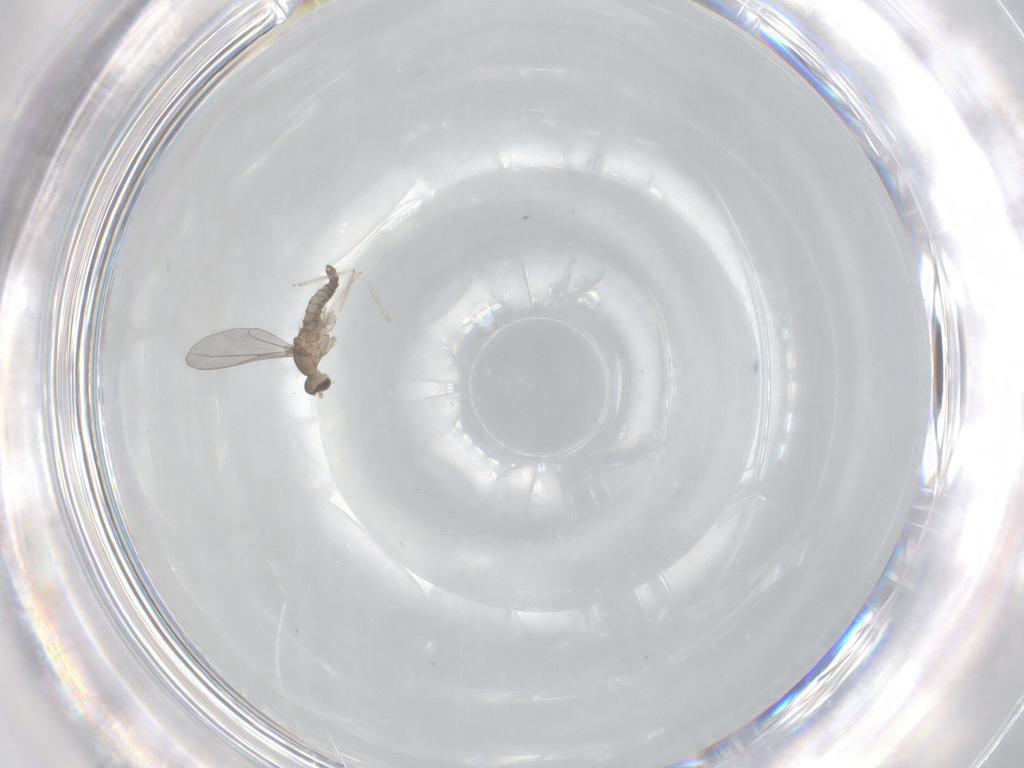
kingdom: Animalia
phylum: Arthropoda
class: Insecta
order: Diptera
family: Cecidomyiidae
